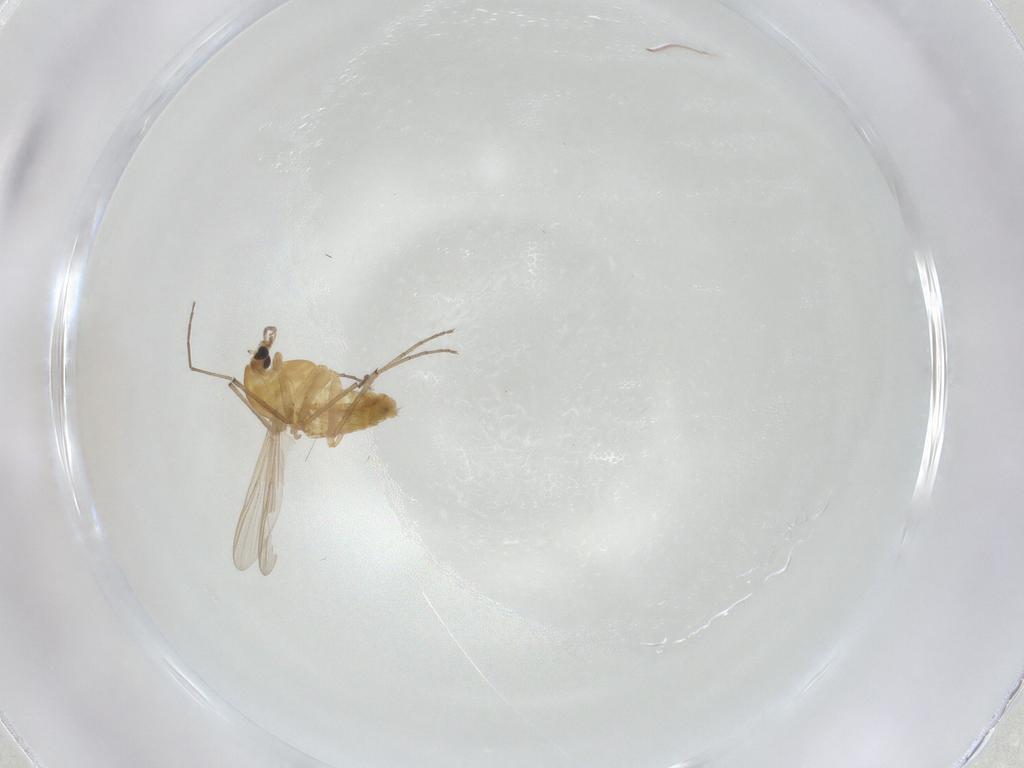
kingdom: Animalia
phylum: Arthropoda
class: Insecta
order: Diptera
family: Chironomidae
